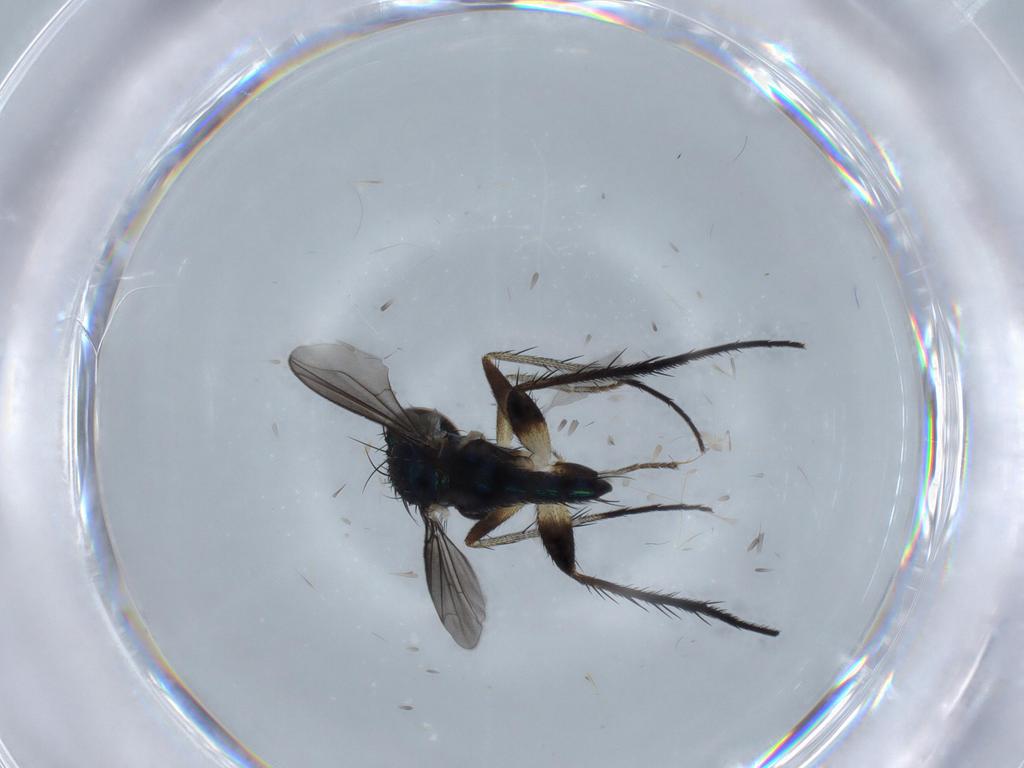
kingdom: Animalia
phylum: Arthropoda
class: Insecta
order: Diptera
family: Dolichopodidae
